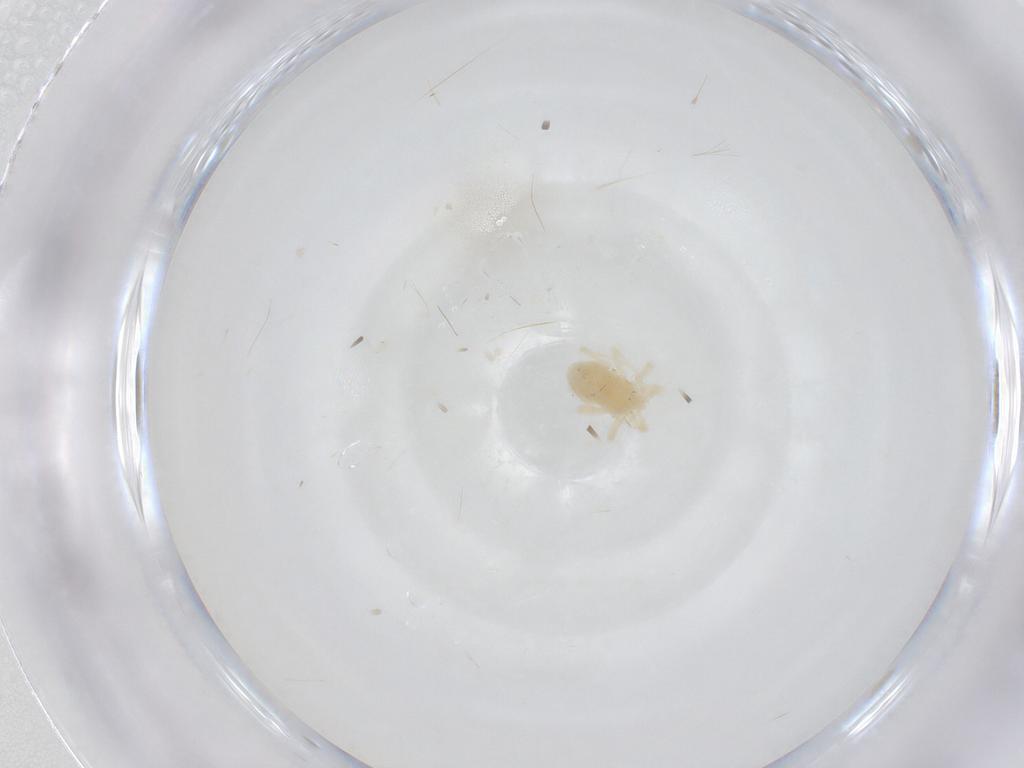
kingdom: Animalia
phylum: Arthropoda
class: Arachnida
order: Trombidiformes
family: Anystidae
